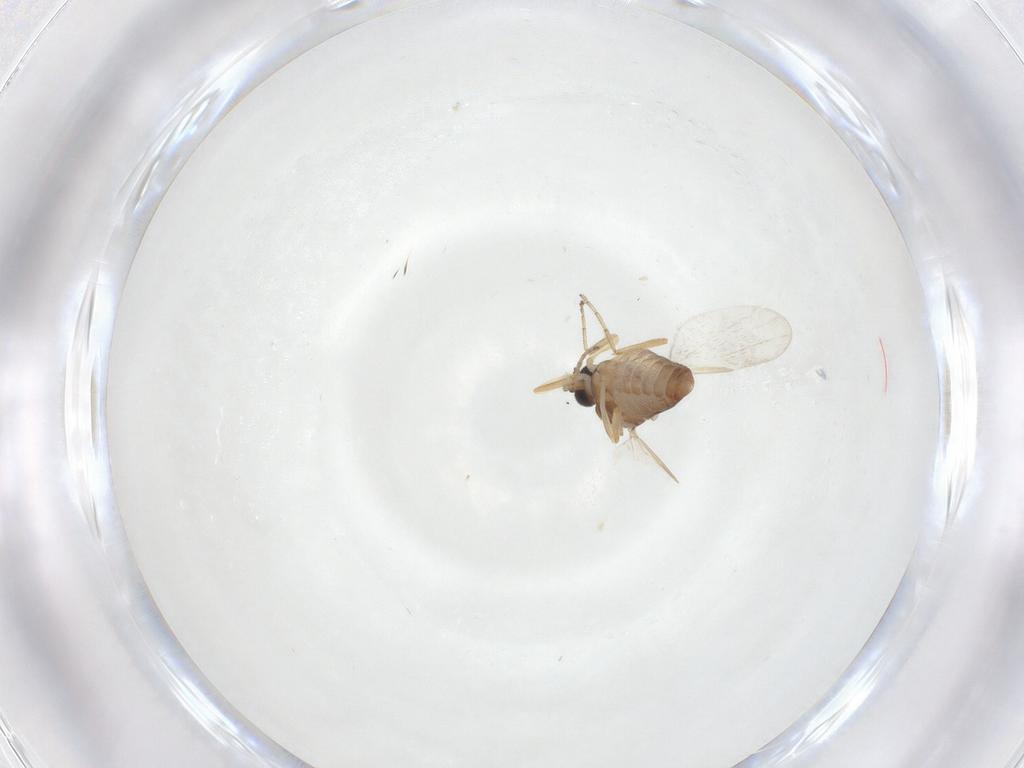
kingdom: Animalia
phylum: Arthropoda
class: Insecta
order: Diptera
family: Ceratopogonidae
